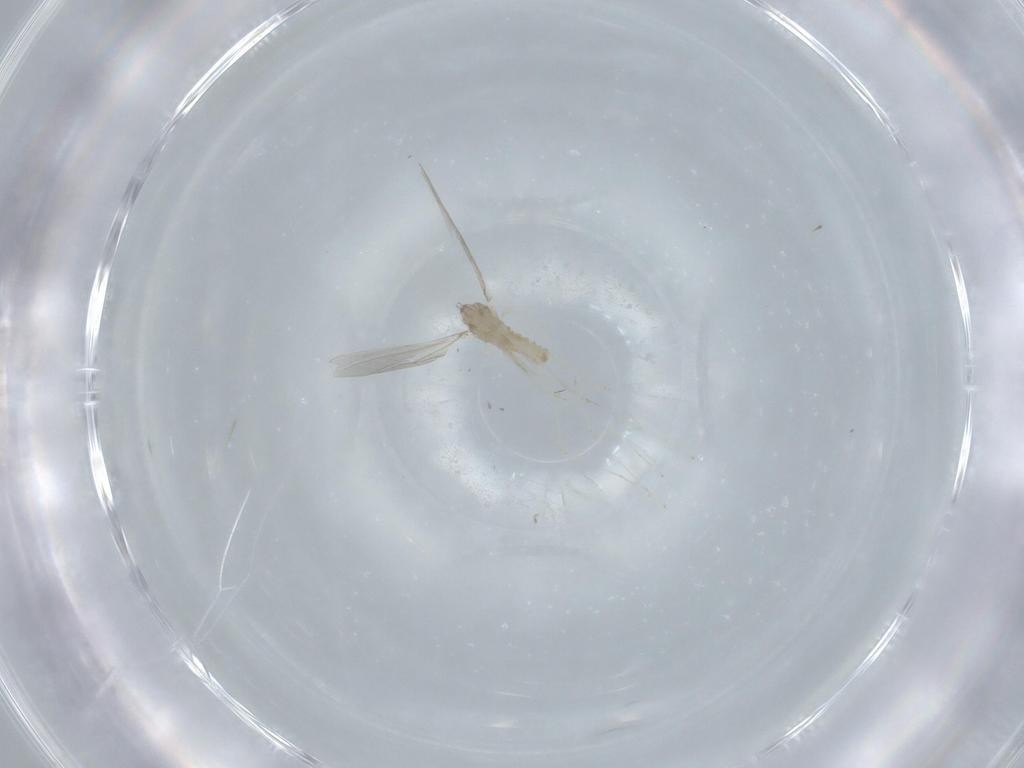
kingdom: Animalia
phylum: Arthropoda
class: Insecta
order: Diptera
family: Cecidomyiidae
